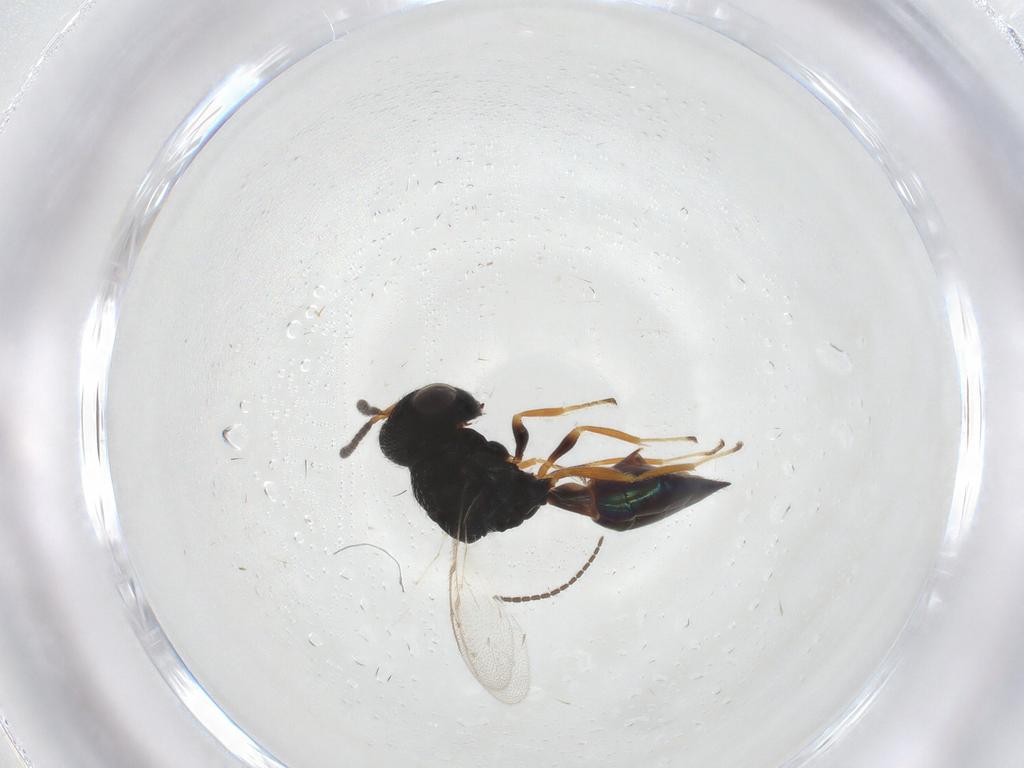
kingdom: Animalia
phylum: Arthropoda
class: Insecta
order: Hymenoptera
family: Pteromalidae
